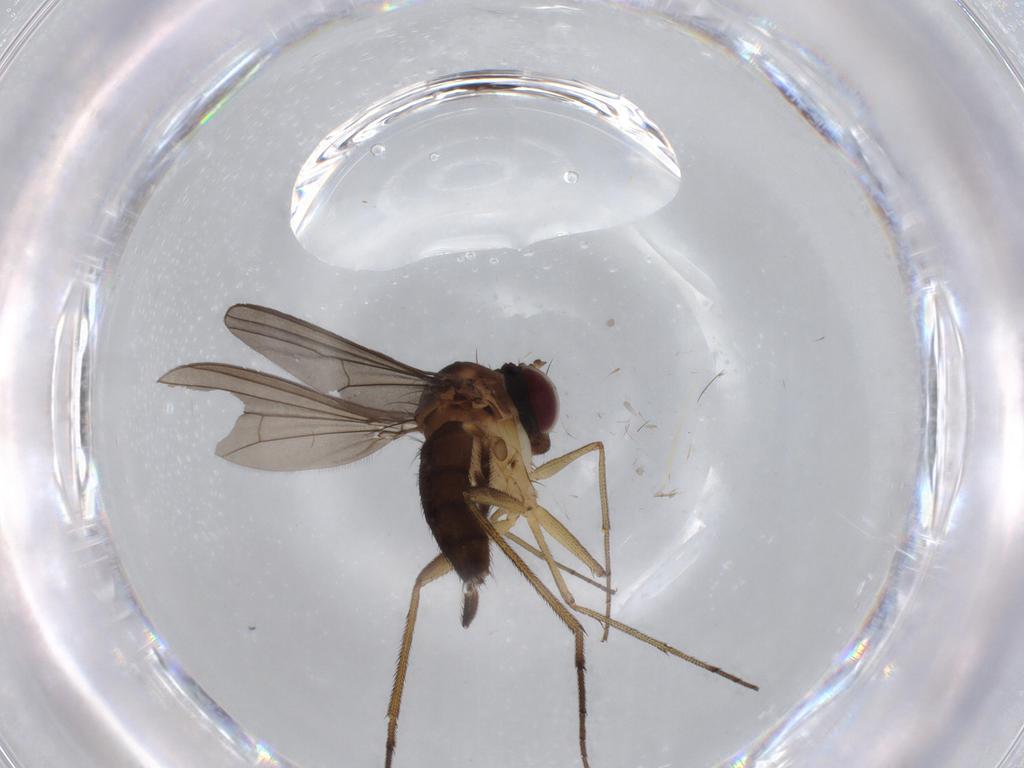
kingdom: Animalia
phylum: Arthropoda
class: Insecta
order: Diptera
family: Dolichopodidae
